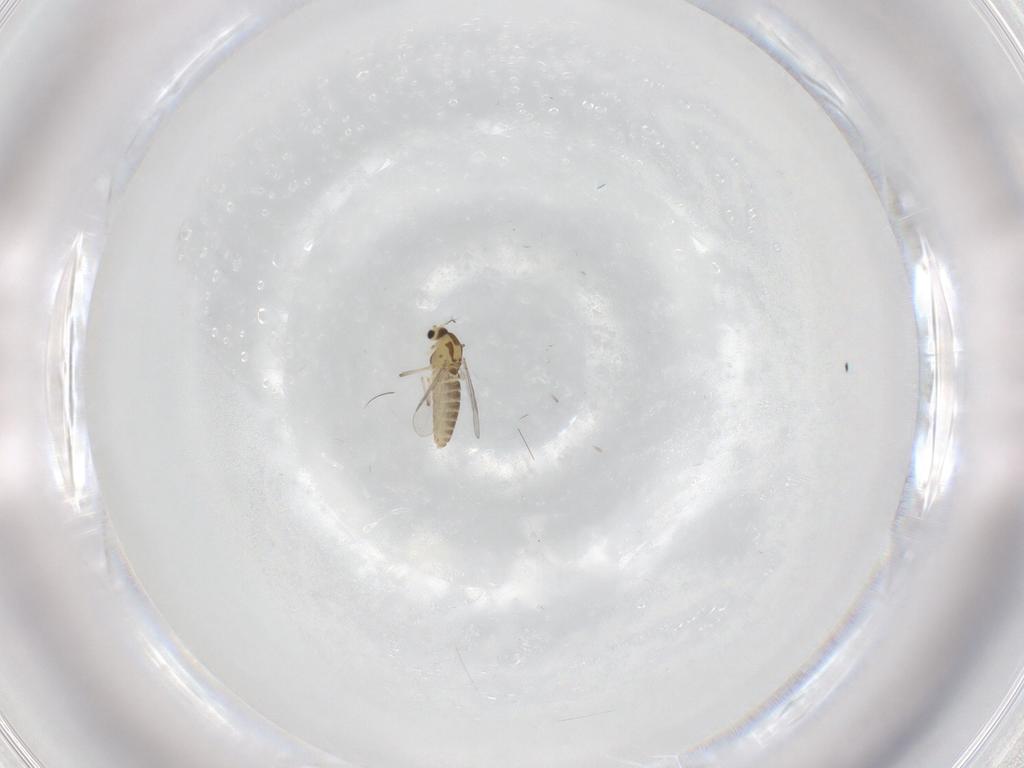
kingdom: Animalia
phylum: Arthropoda
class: Insecta
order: Diptera
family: Chironomidae
